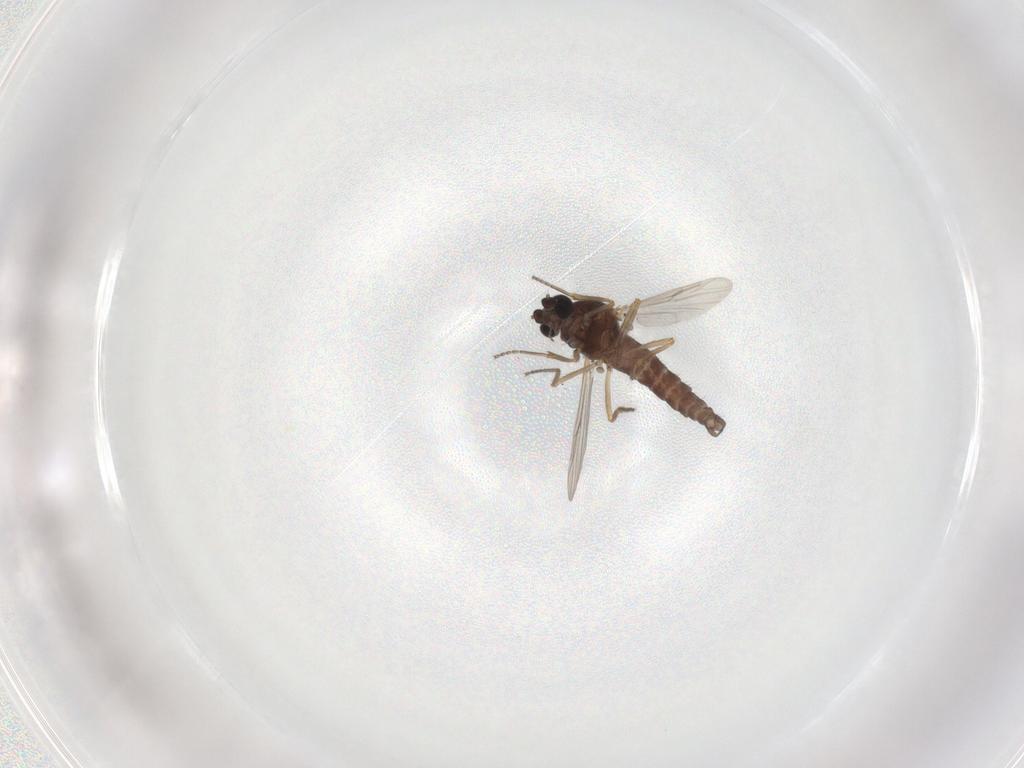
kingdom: Animalia
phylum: Arthropoda
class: Insecta
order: Diptera
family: Ceratopogonidae
